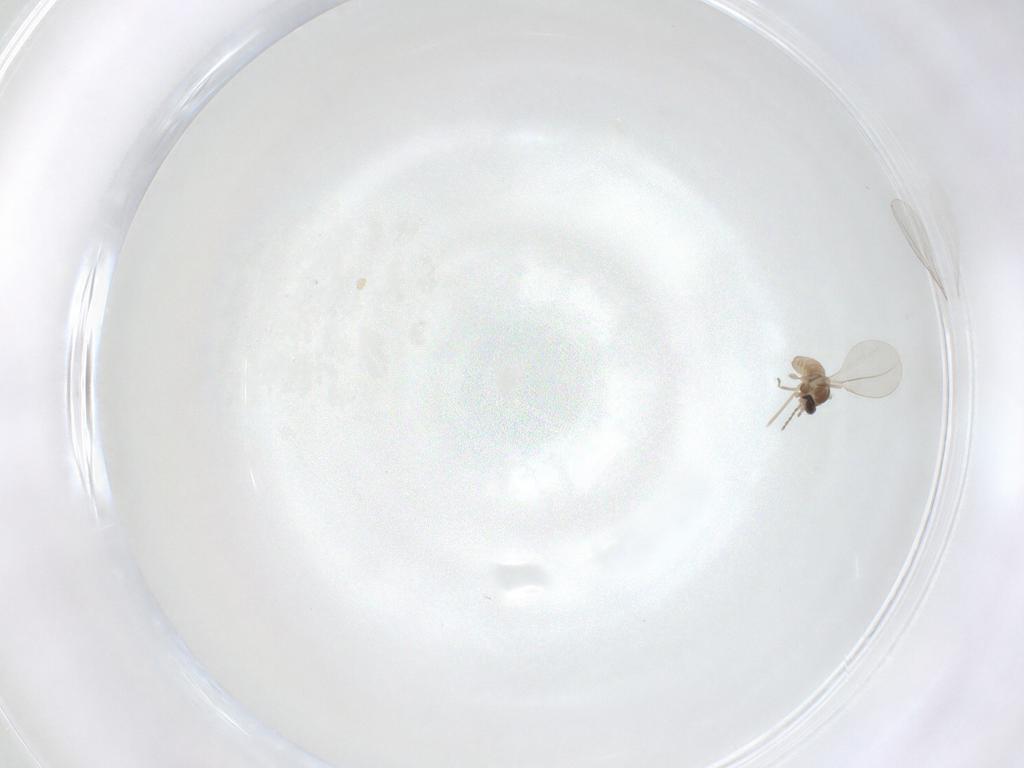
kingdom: Animalia
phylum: Arthropoda
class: Insecta
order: Diptera
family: Cecidomyiidae
